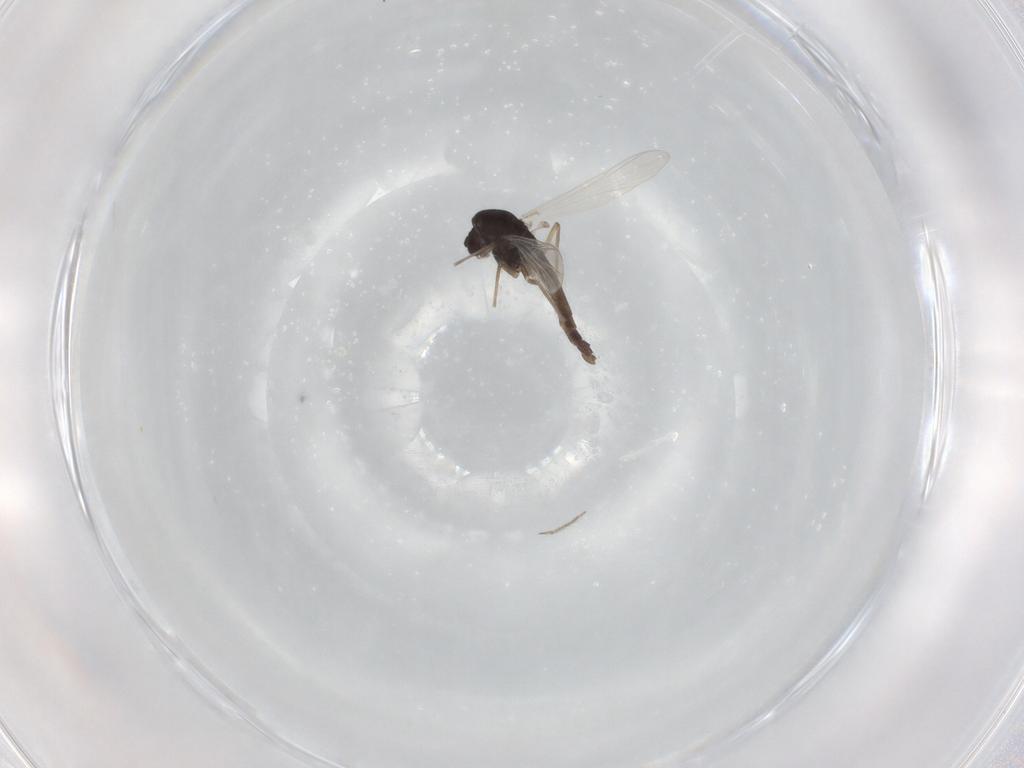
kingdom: Animalia
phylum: Arthropoda
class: Insecta
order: Diptera
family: Chironomidae
